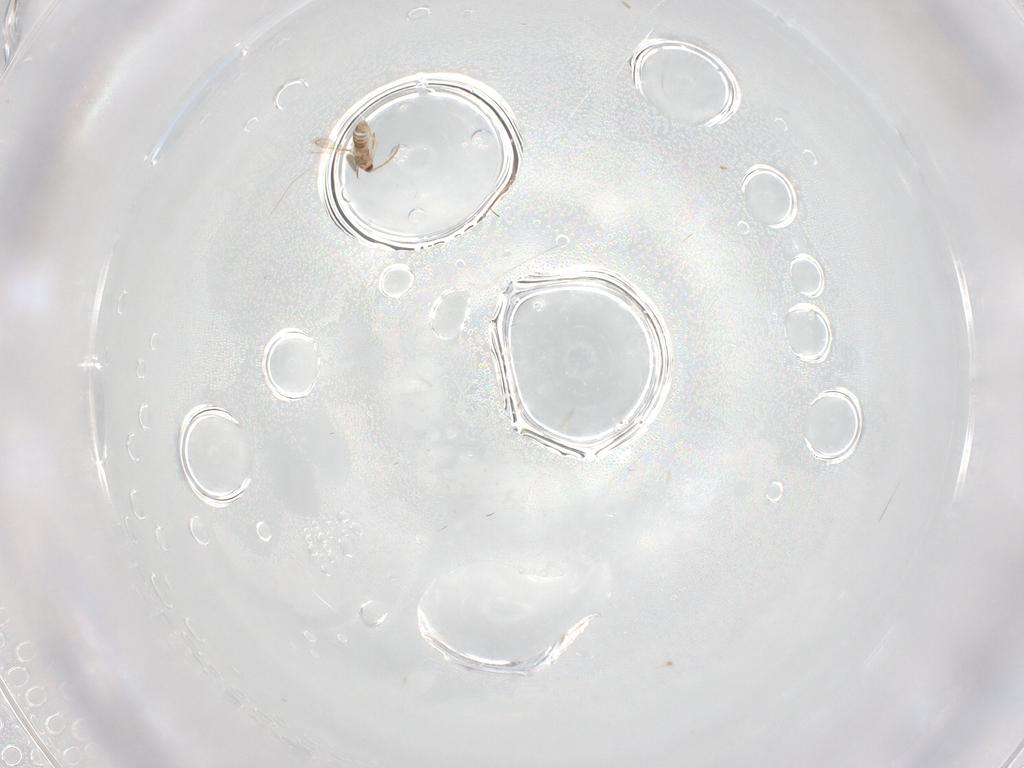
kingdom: Animalia
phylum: Arthropoda
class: Insecta
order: Hymenoptera
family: Aphelinidae
